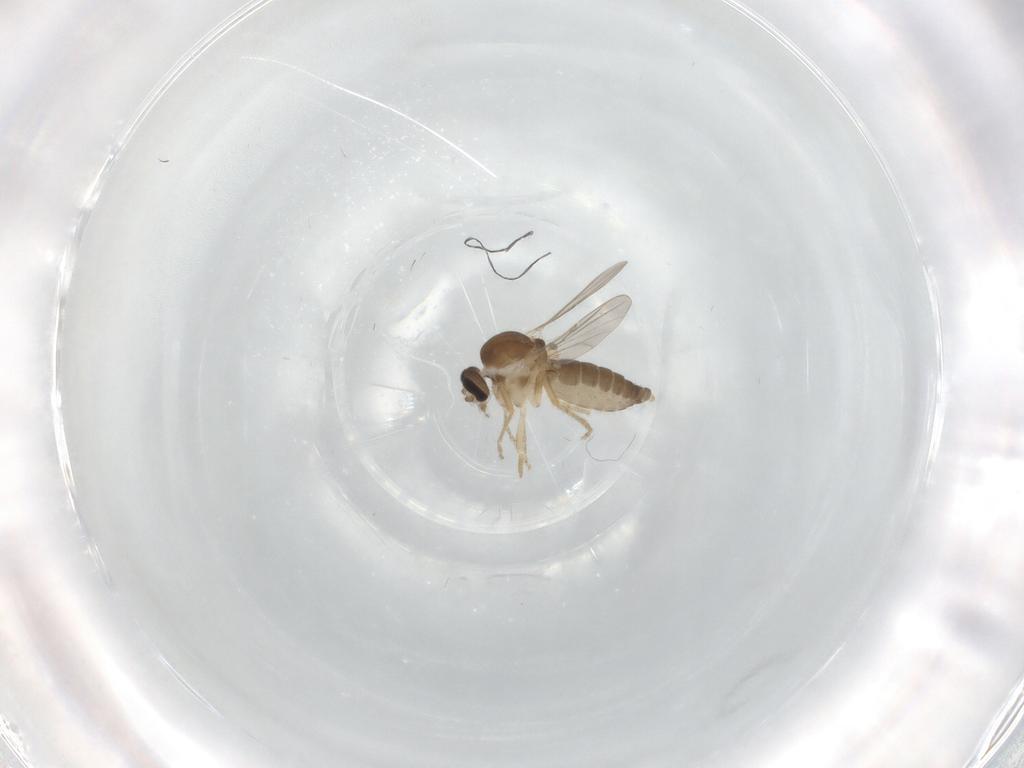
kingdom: Animalia
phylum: Arthropoda
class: Insecta
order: Diptera
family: Ceratopogonidae
